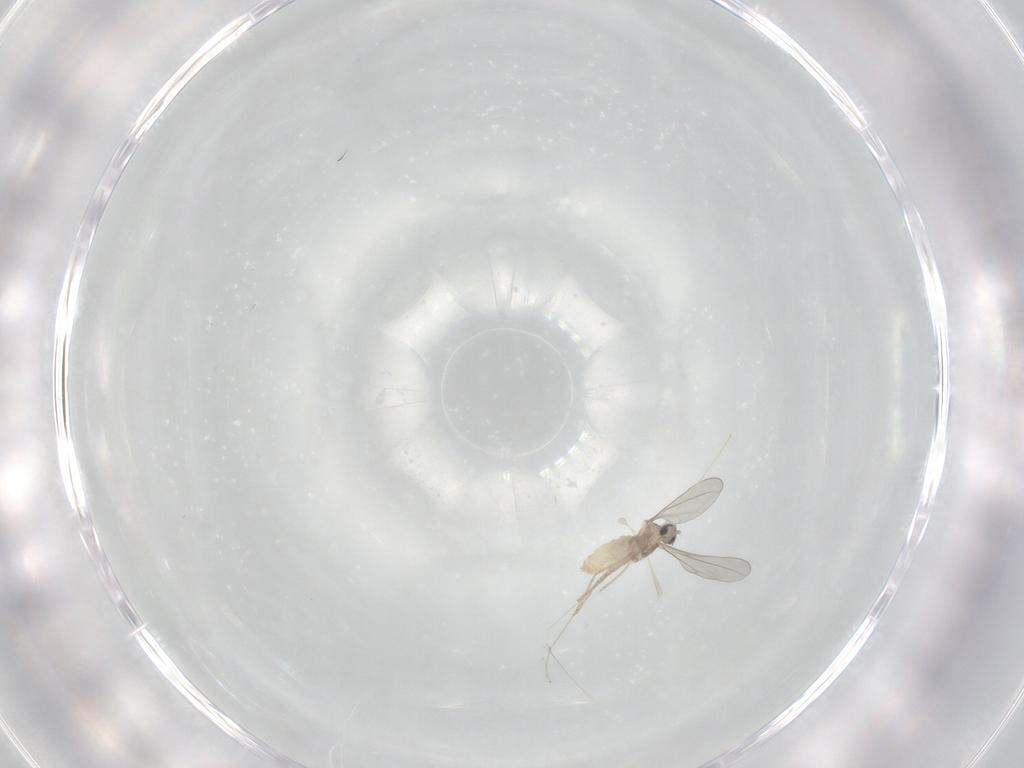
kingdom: Animalia
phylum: Arthropoda
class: Insecta
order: Diptera
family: Cecidomyiidae
